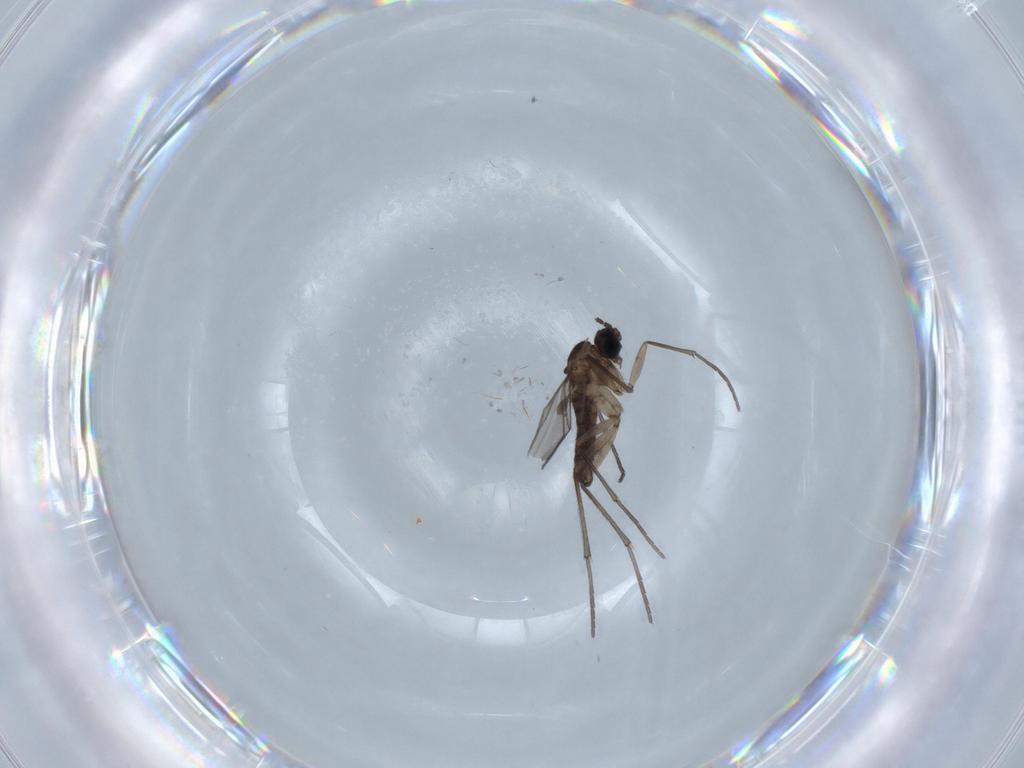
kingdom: Animalia
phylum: Arthropoda
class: Insecta
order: Diptera
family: Sciaridae
